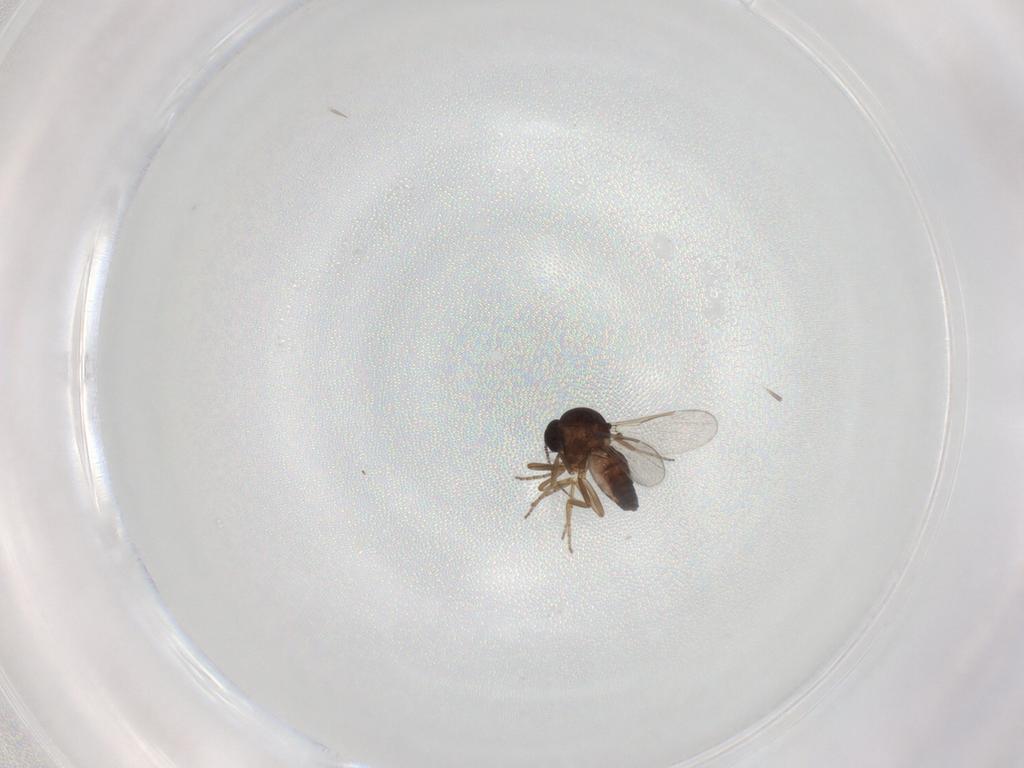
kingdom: Animalia
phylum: Arthropoda
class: Insecta
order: Diptera
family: Ceratopogonidae
